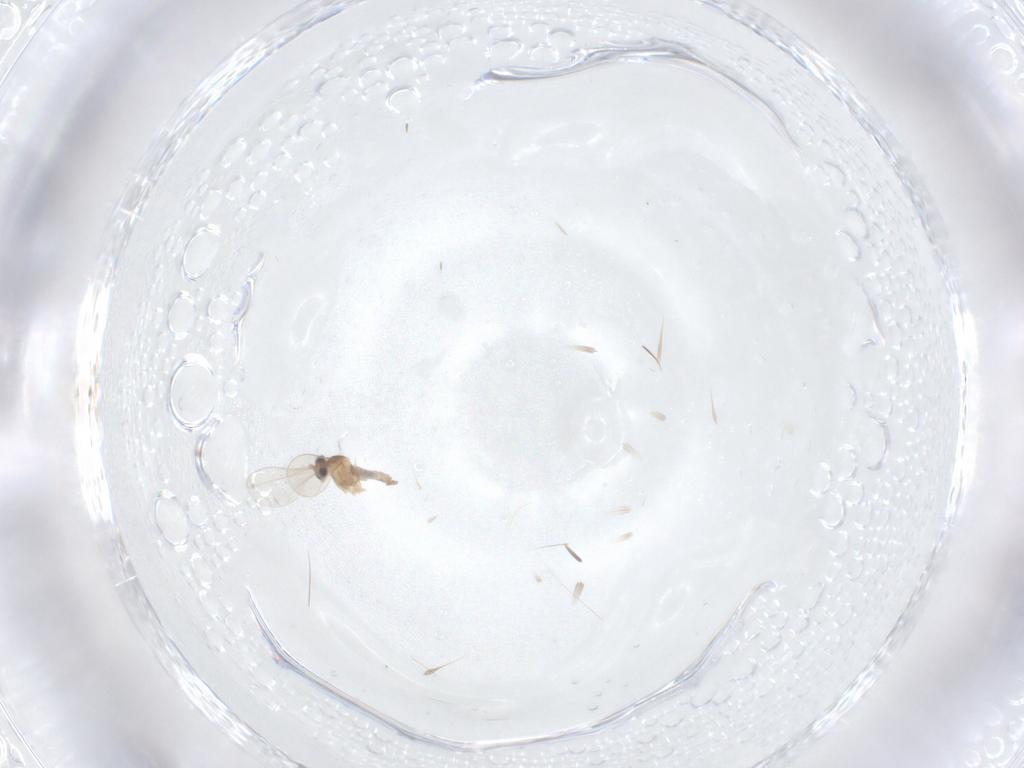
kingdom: Animalia
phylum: Arthropoda
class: Insecta
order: Diptera
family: Cecidomyiidae
